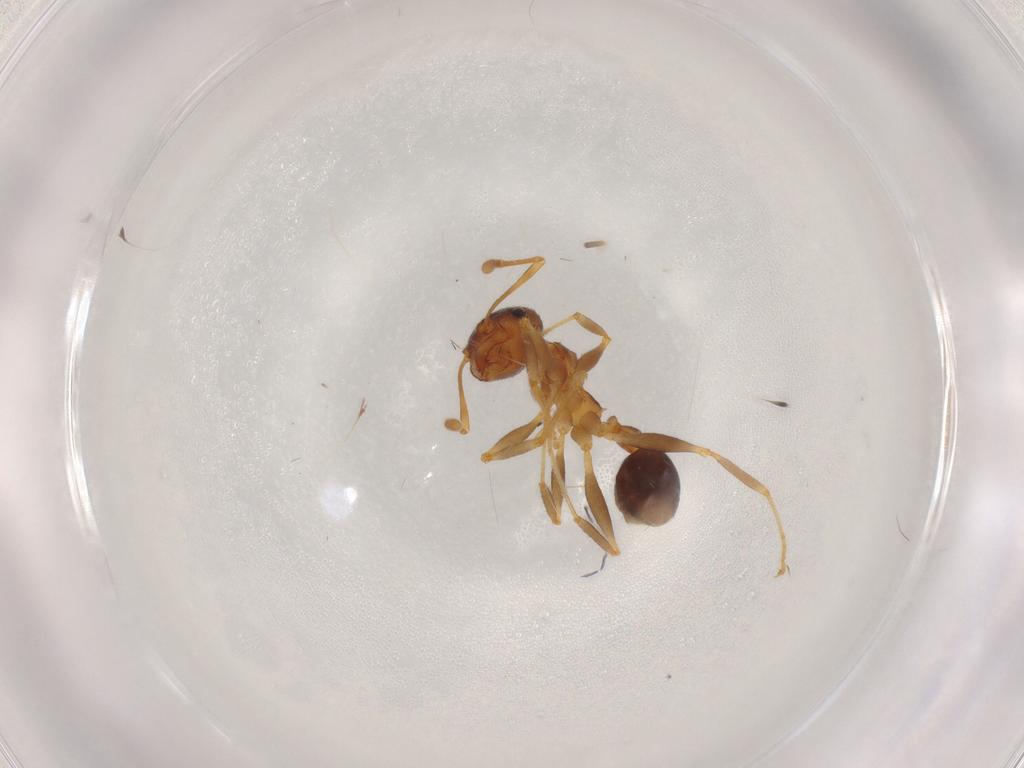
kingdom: Animalia
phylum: Arthropoda
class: Insecta
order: Hymenoptera
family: Formicidae
